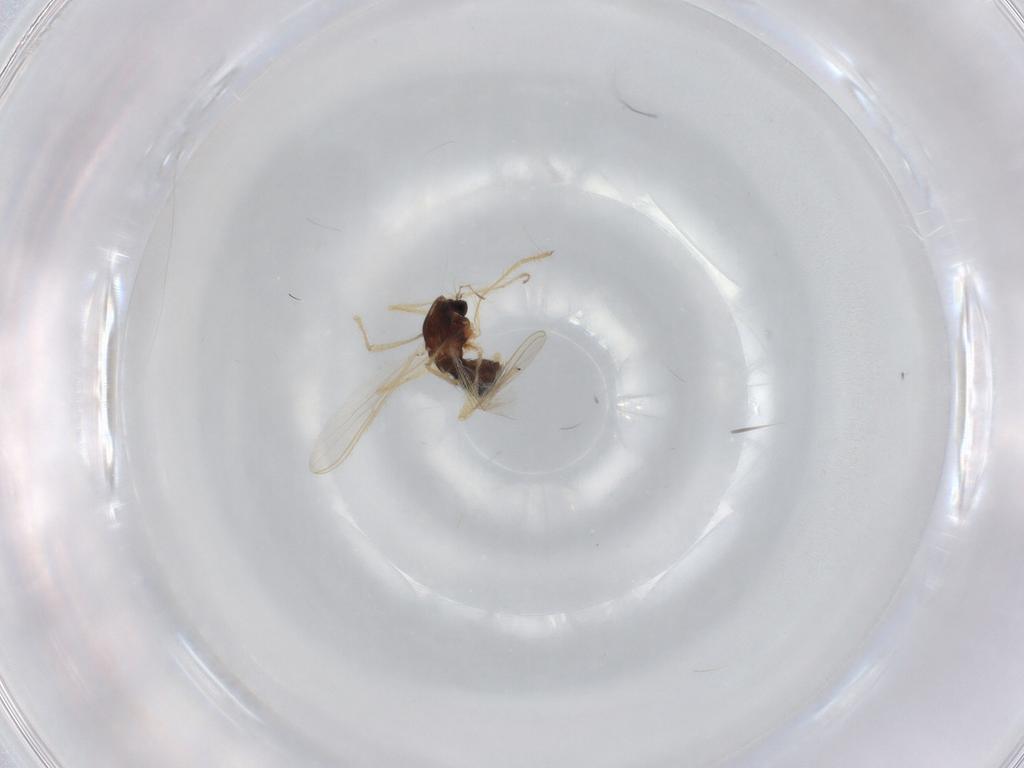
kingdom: Animalia
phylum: Arthropoda
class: Insecta
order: Diptera
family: Chironomidae
